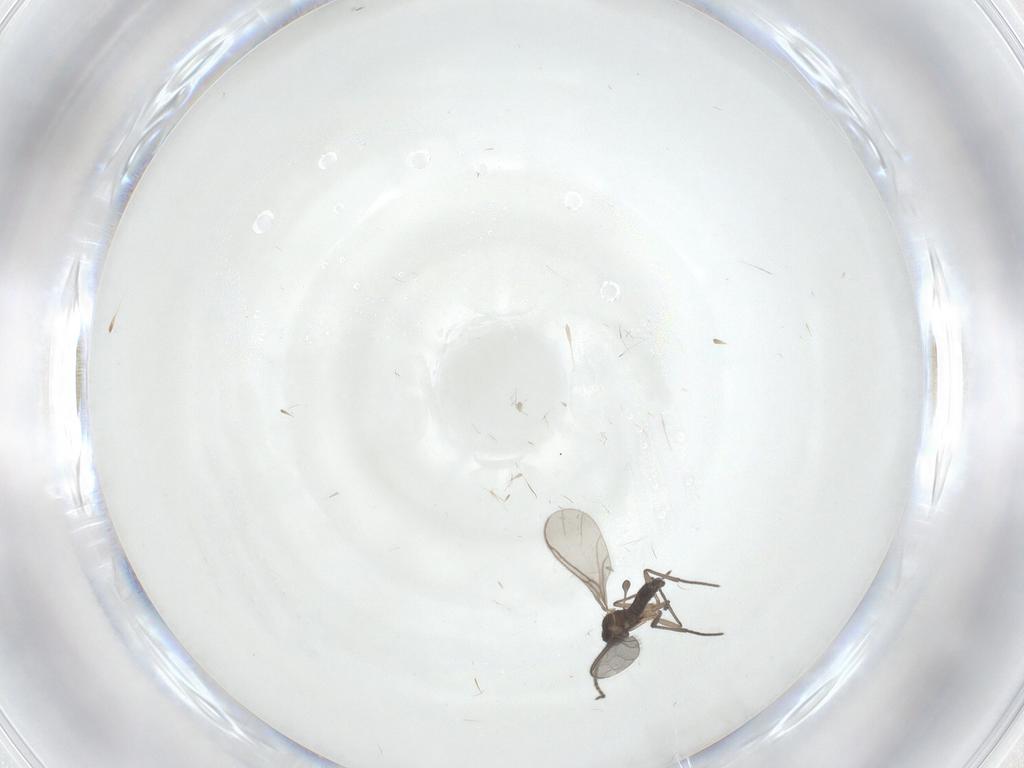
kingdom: Animalia
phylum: Arthropoda
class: Insecta
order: Diptera
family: Sciaridae
